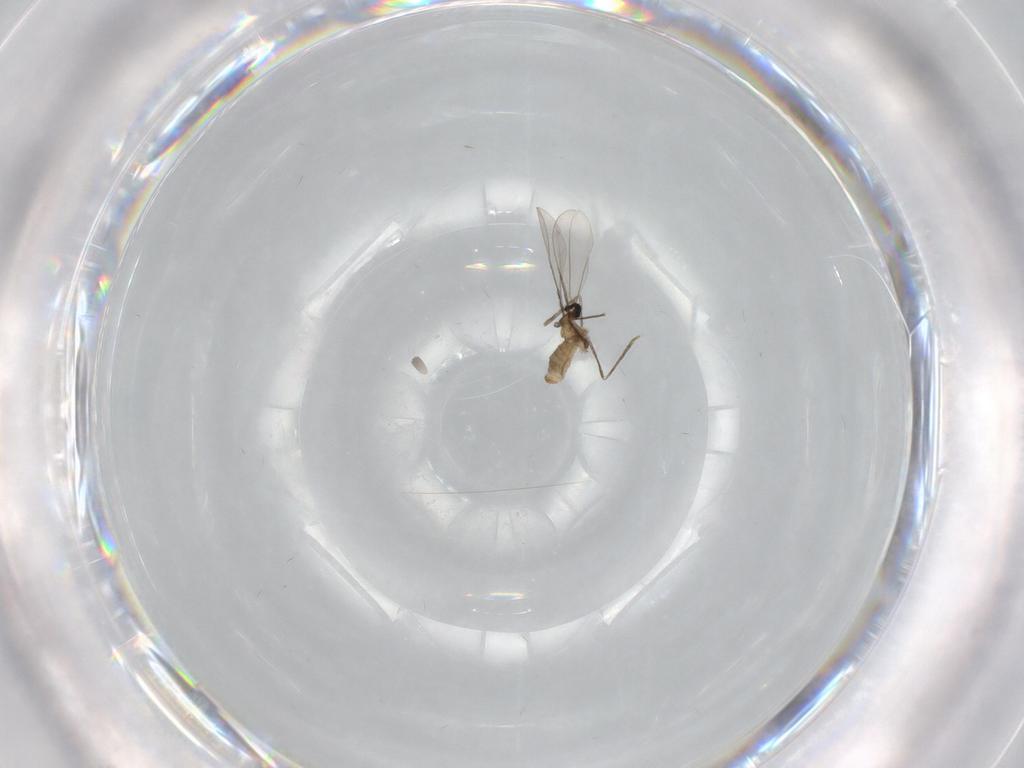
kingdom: Animalia
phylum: Arthropoda
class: Insecta
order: Diptera
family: Cecidomyiidae
